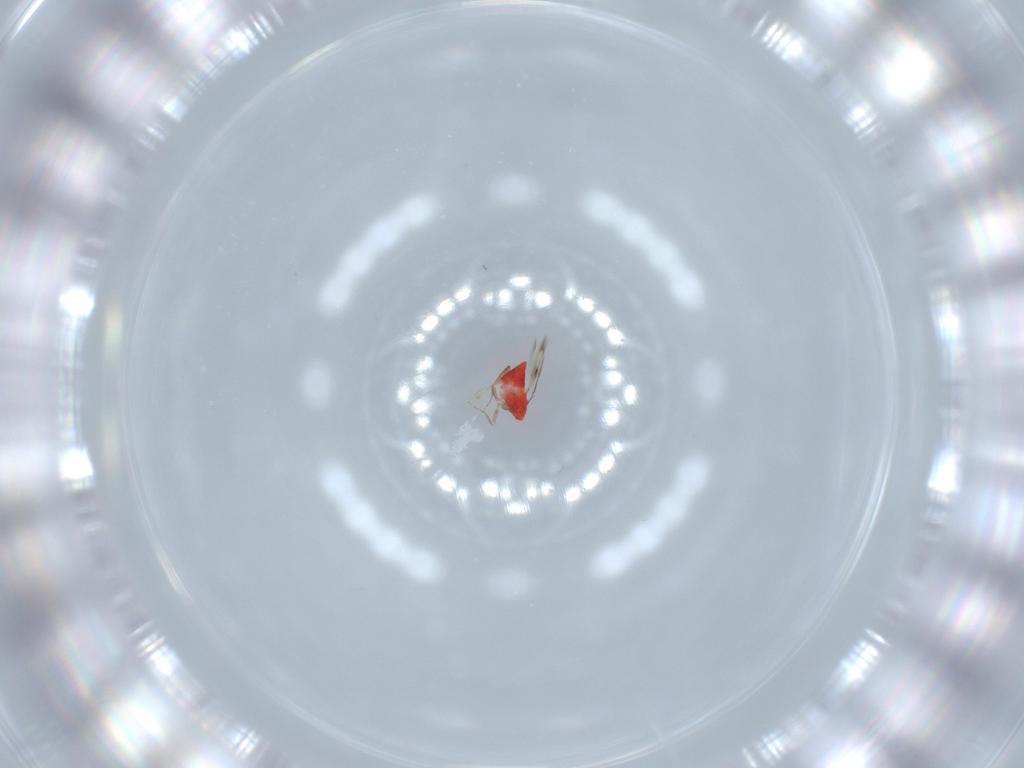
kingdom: Animalia
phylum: Arthropoda
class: Insecta
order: Hymenoptera
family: Trichogrammatidae
